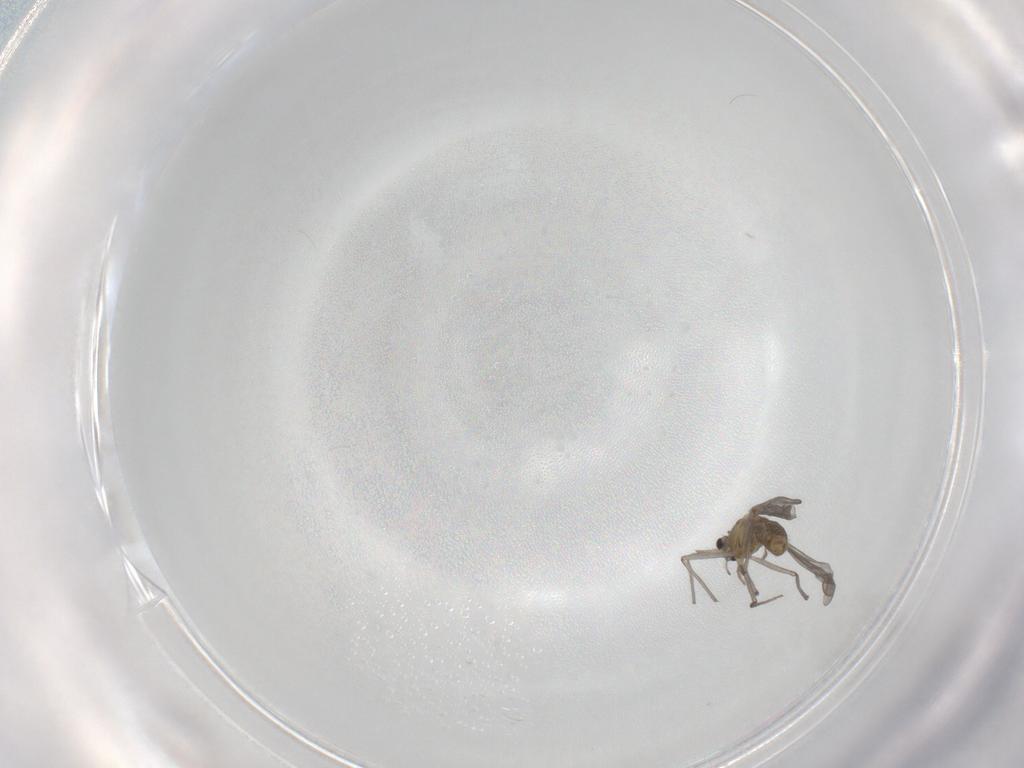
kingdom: Animalia
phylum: Arthropoda
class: Insecta
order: Diptera
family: Chironomidae
